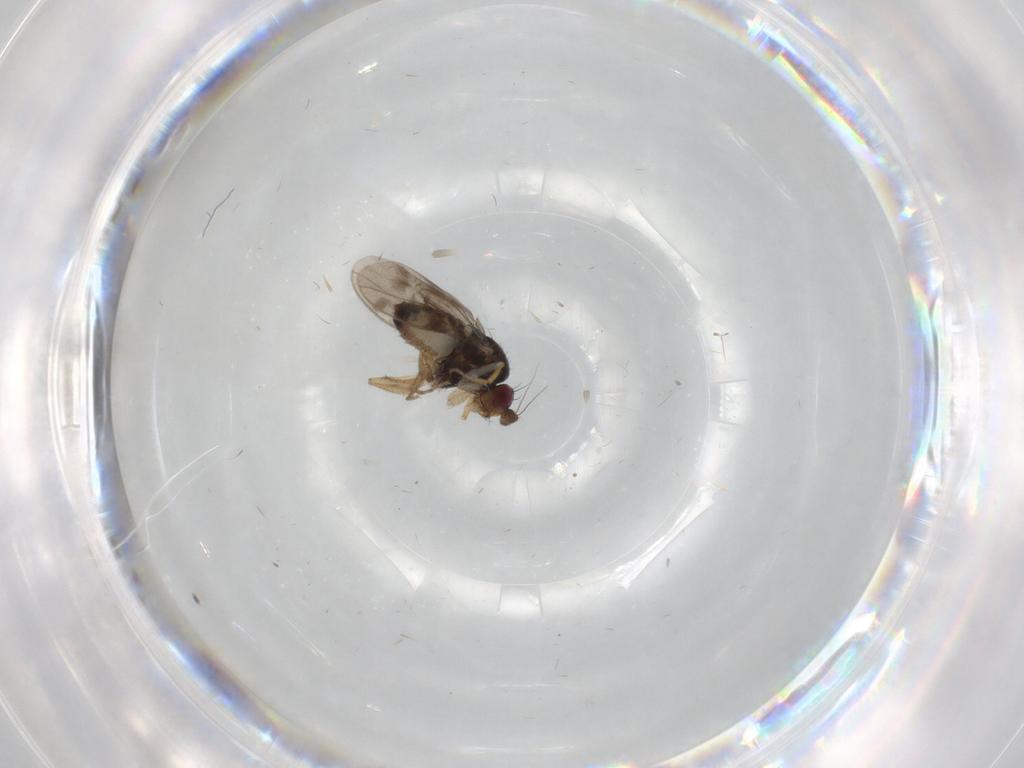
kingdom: Animalia
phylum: Arthropoda
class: Insecta
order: Diptera
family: Sphaeroceridae
